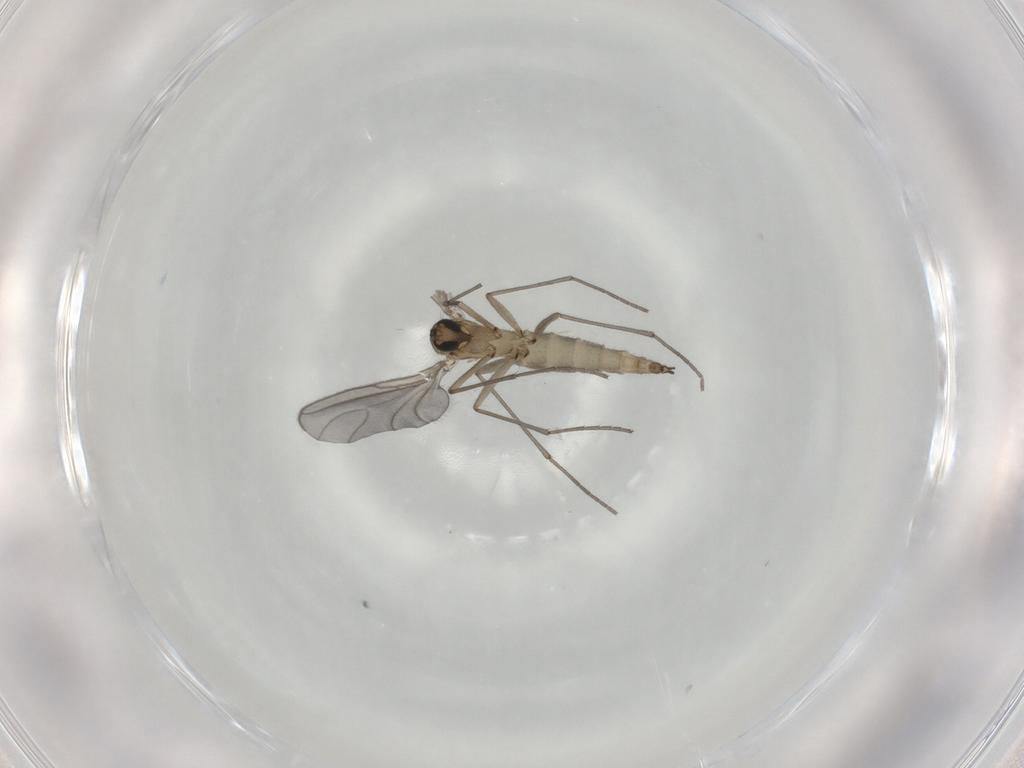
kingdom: Animalia
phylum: Arthropoda
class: Insecta
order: Diptera
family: Sciaridae
